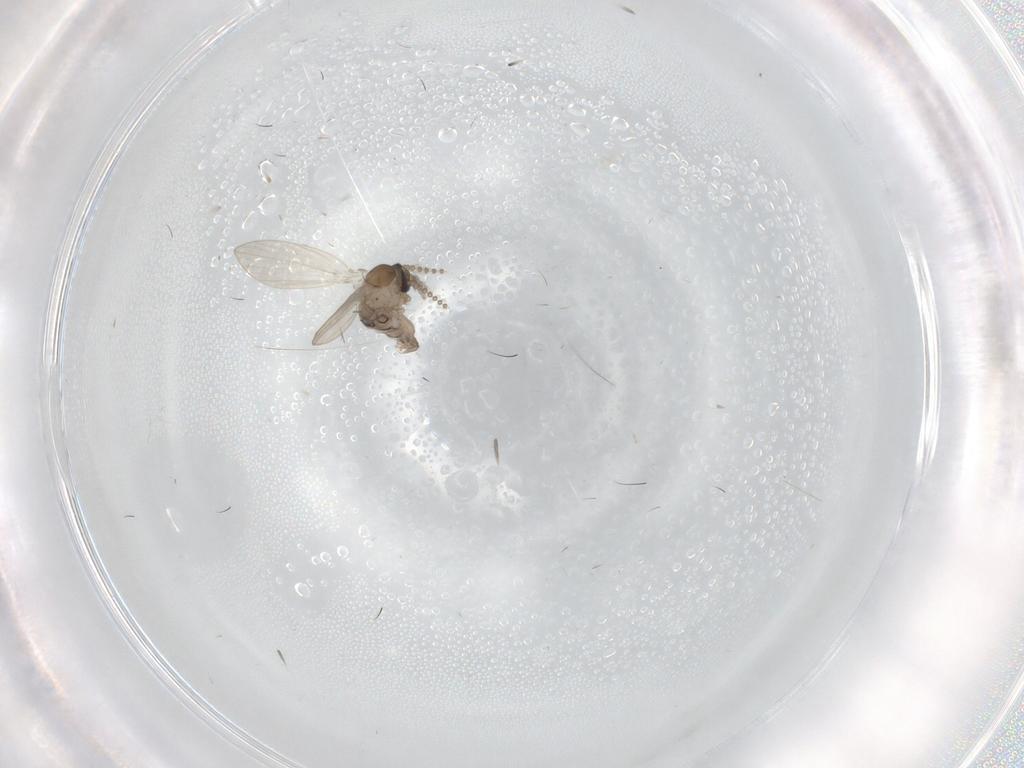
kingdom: Animalia
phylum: Arthropoda
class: Insecta
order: Diptera
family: Psychodidae
